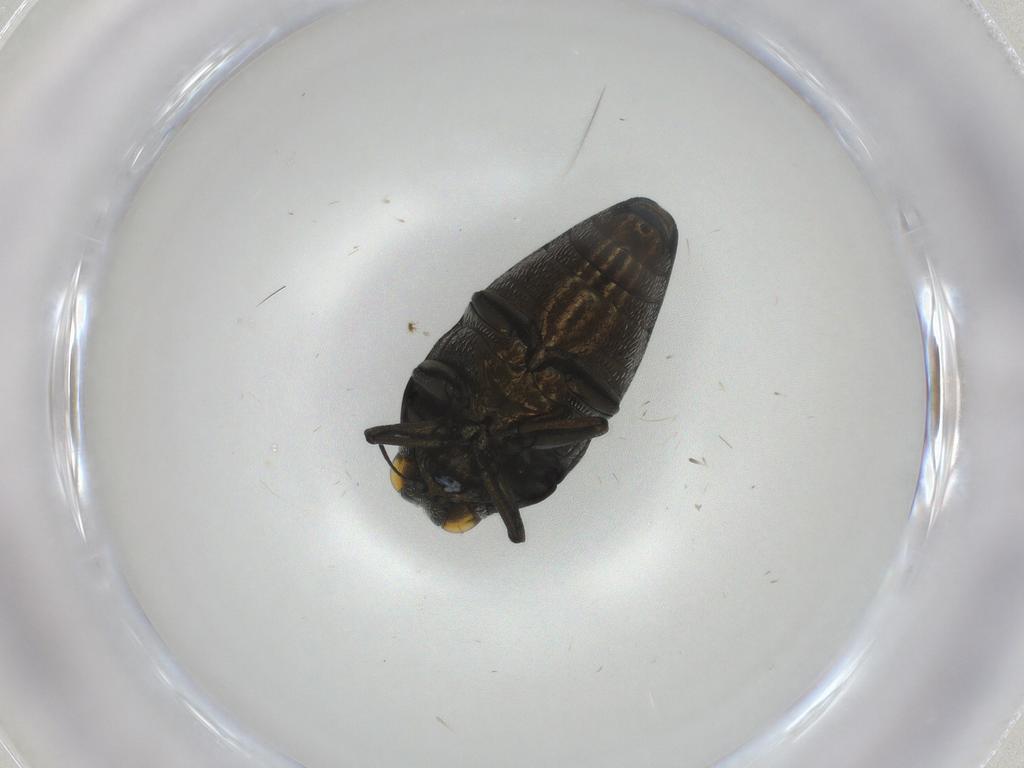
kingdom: Animalia
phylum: Arthropoda
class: Insecta
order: Coleoptera
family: Buprestidae
